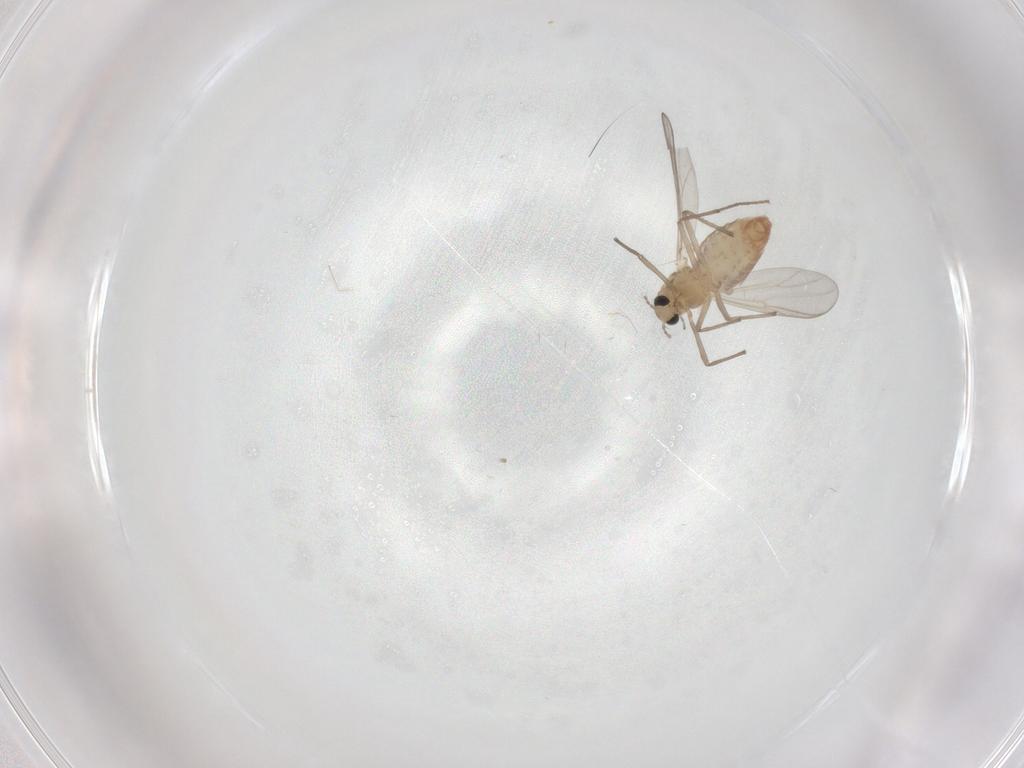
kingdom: Animalia
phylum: Arthropoda
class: Insecta
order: Diptera
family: Chironomidae
